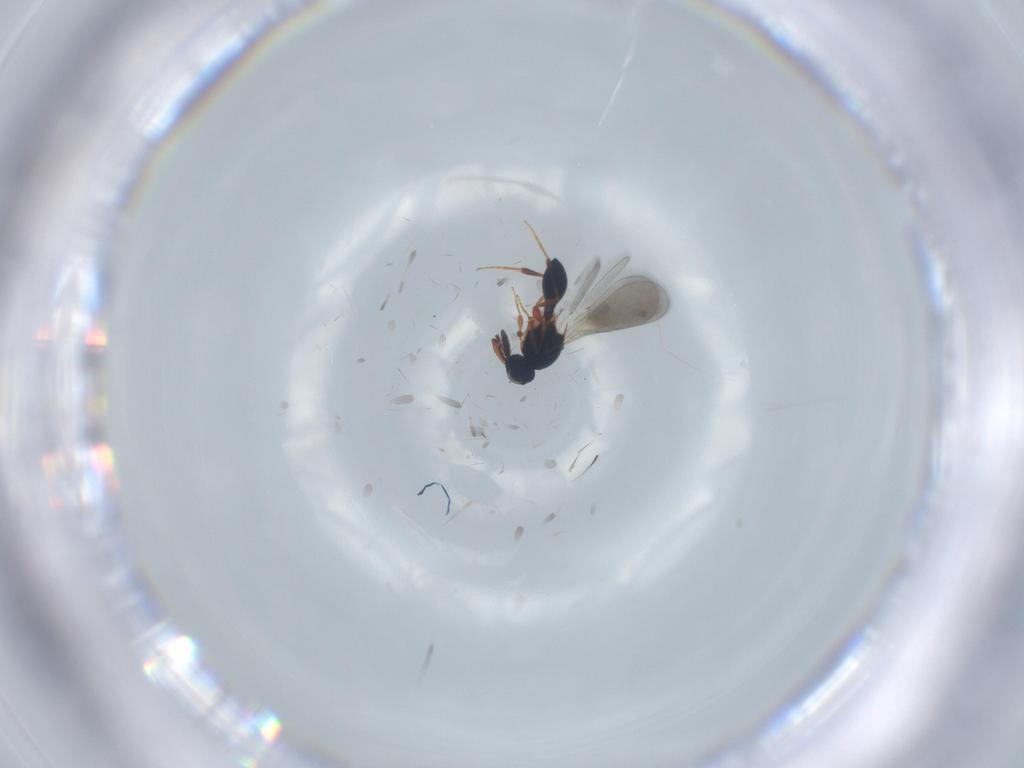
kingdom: Animalia
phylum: Arthropoda
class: Insecta
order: Hymenoptera
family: Platygastridae
